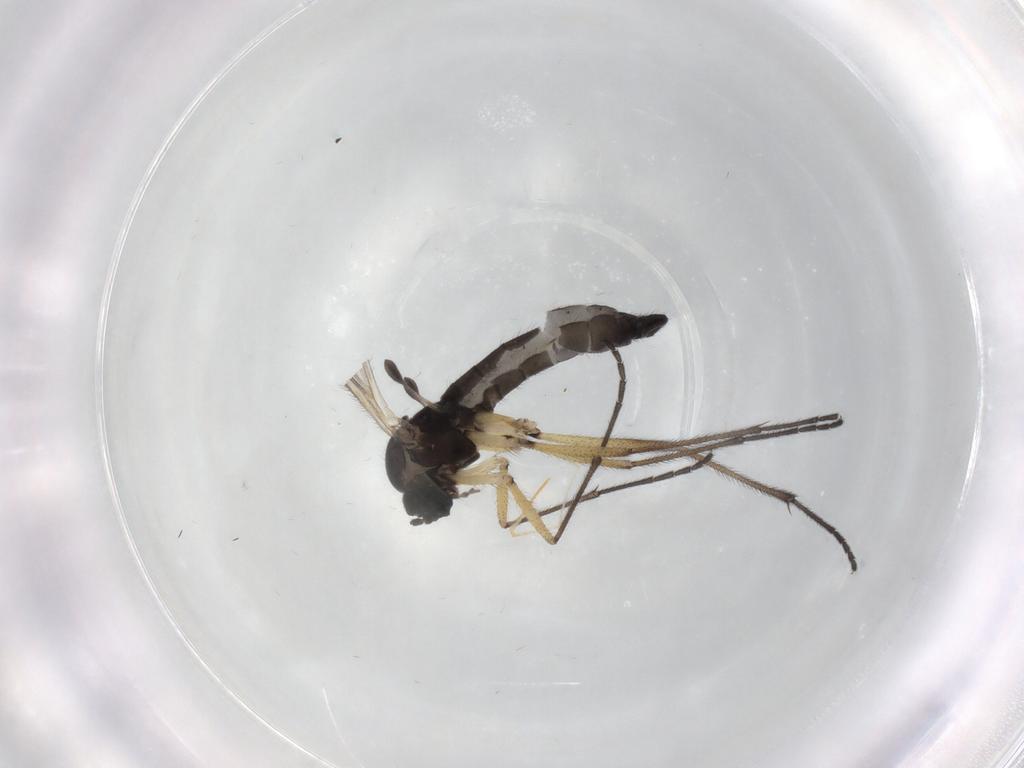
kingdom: Animalia
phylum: Arthropoda
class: Insecta
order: Diptera
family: Sciaridae
